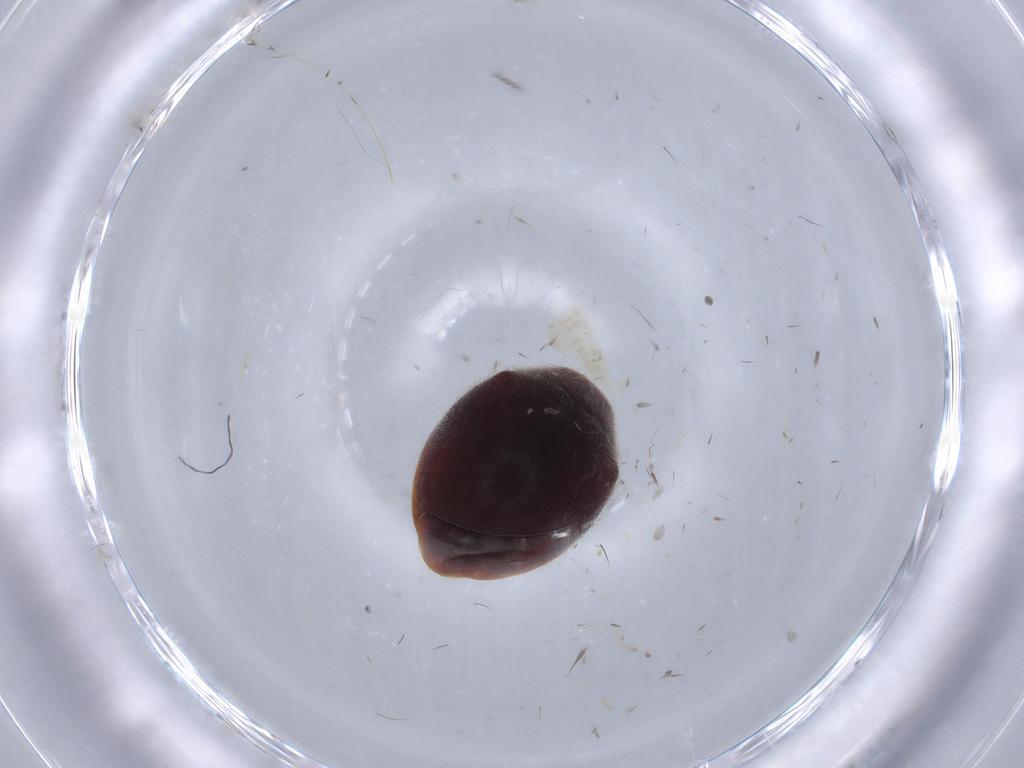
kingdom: Animalia
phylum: Arthropoda
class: Insecta
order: Coleoptera
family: Coccinellidae
